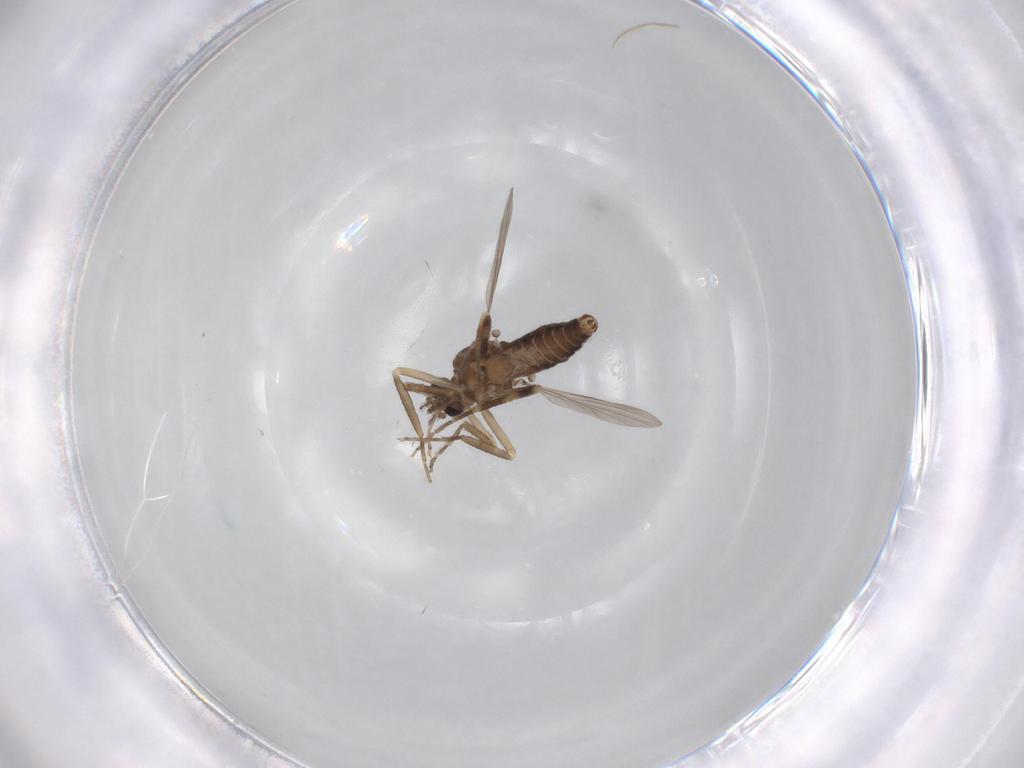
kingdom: Animalia
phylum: Arthropoda
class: Insecta
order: Diptera
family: Ceratopogonidae
